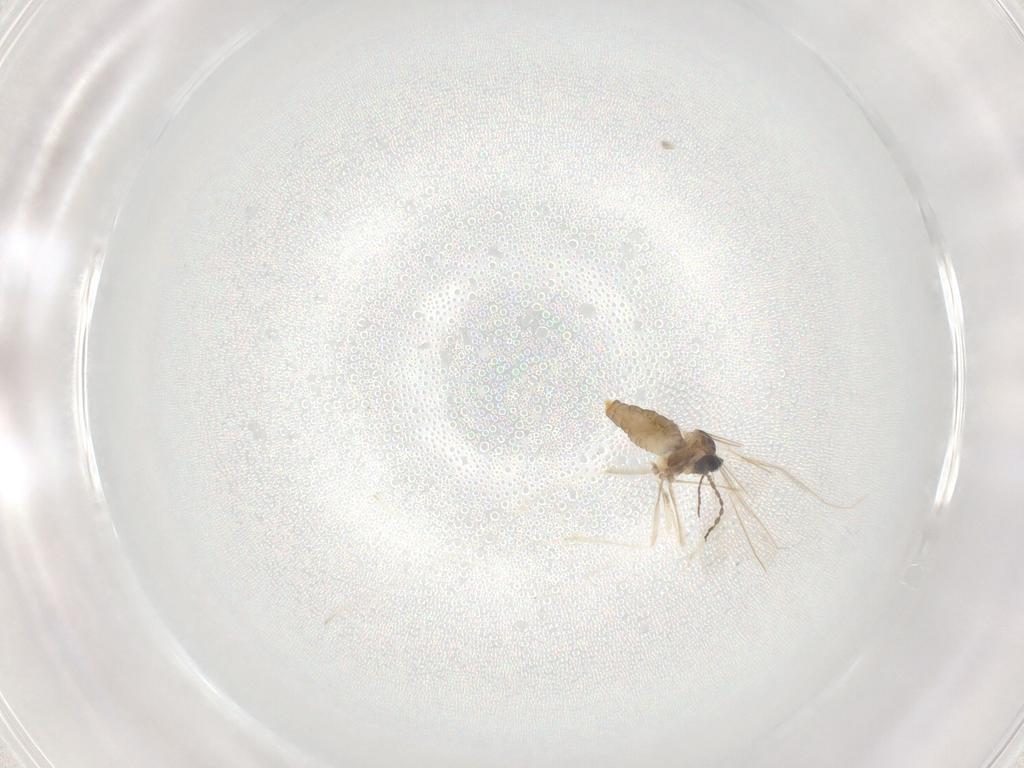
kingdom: Animalia
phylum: Arthropoda
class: Insecta
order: Diptera
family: Cecidomyiidae
